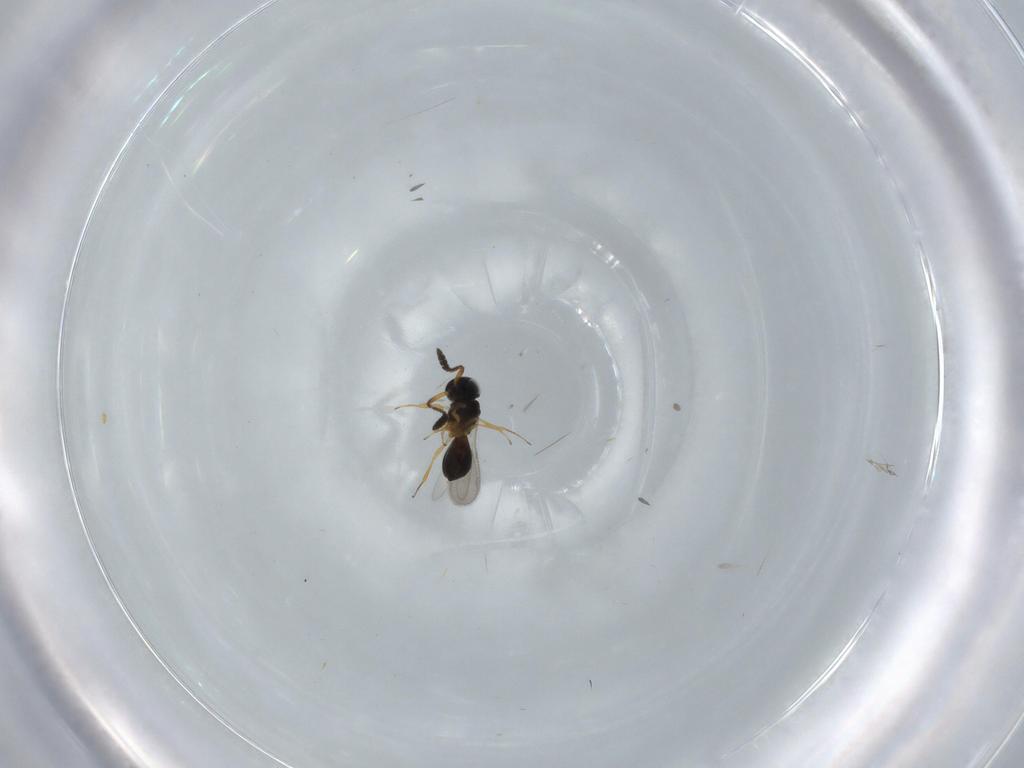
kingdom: Animalia
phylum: Arthropoda
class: Insecta
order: Hymenoptera
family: Scelionidae
